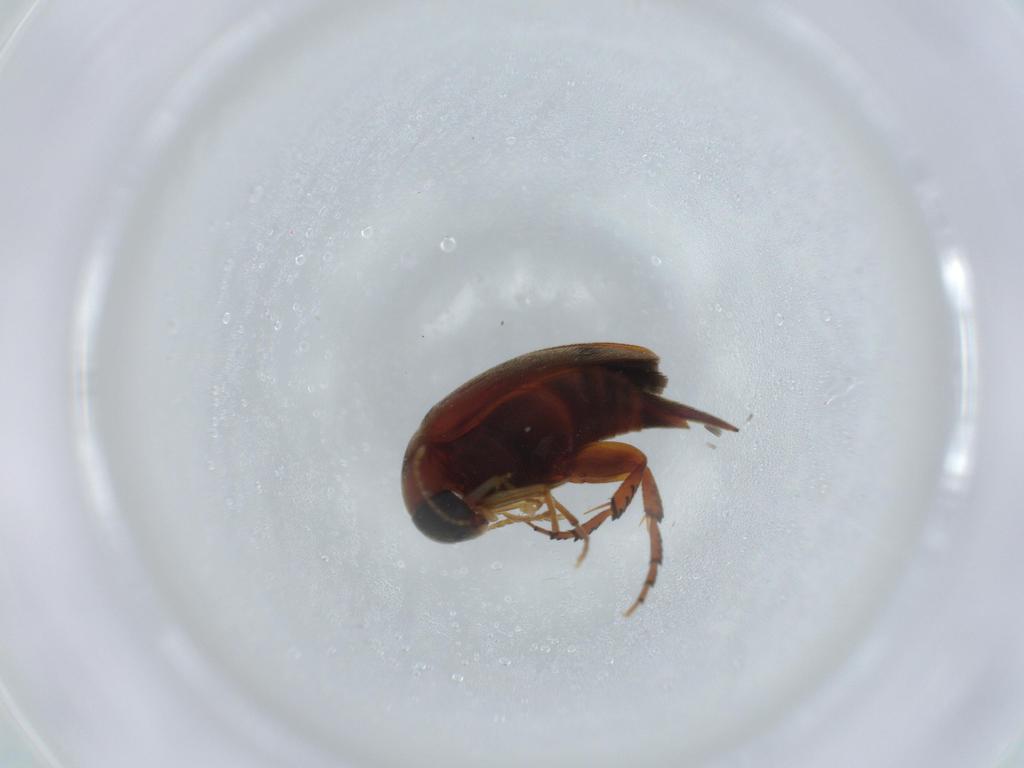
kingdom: Animalia
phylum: Arthropoda
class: Insecta
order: Coleoptera
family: Mordellidae
